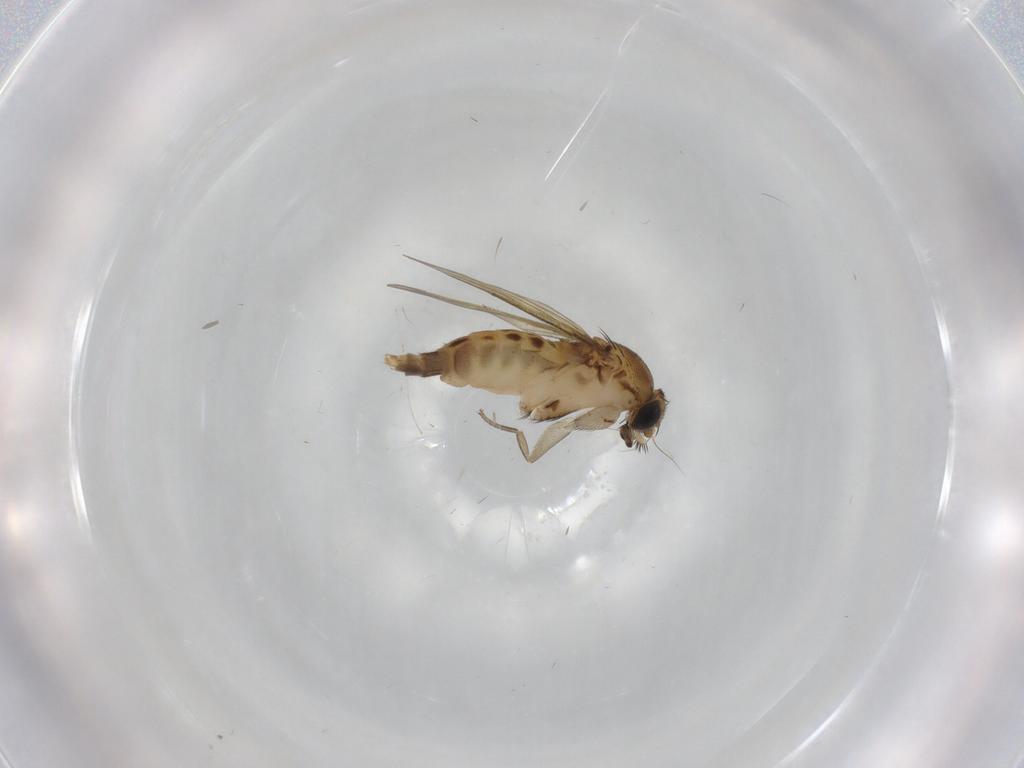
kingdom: Animalia
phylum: Arthropoda
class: Insecta
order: Diptera
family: Phoridae
